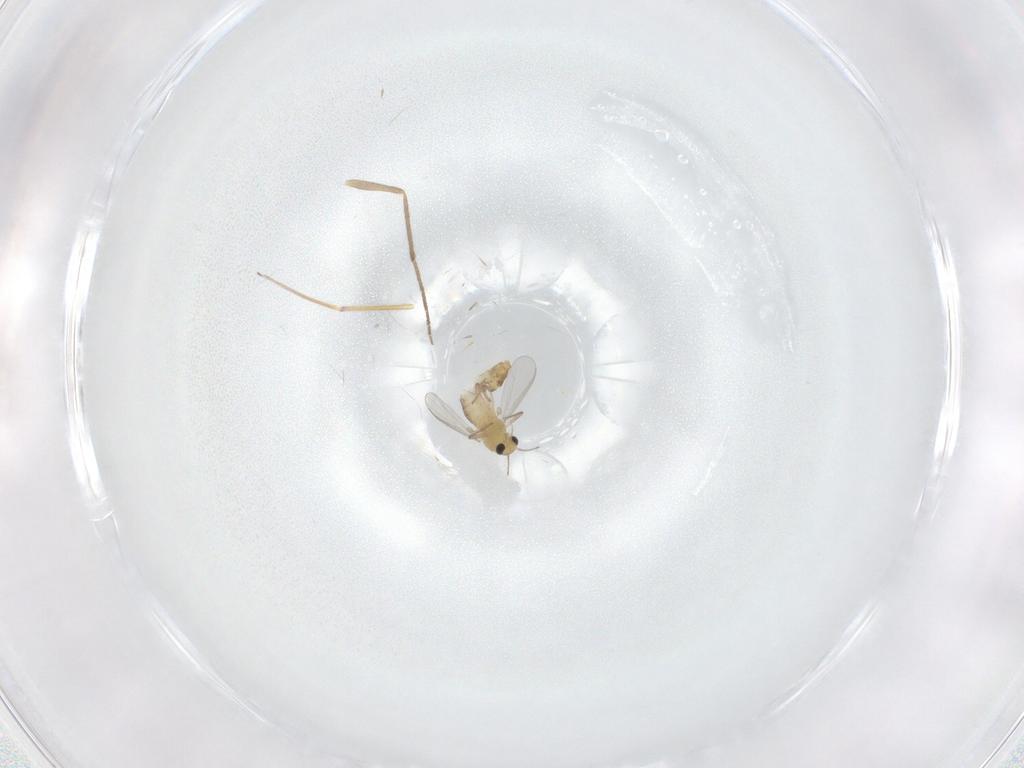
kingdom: Animalia
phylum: Arthropoda
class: Insecta
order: Diptera
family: Chironomidae
